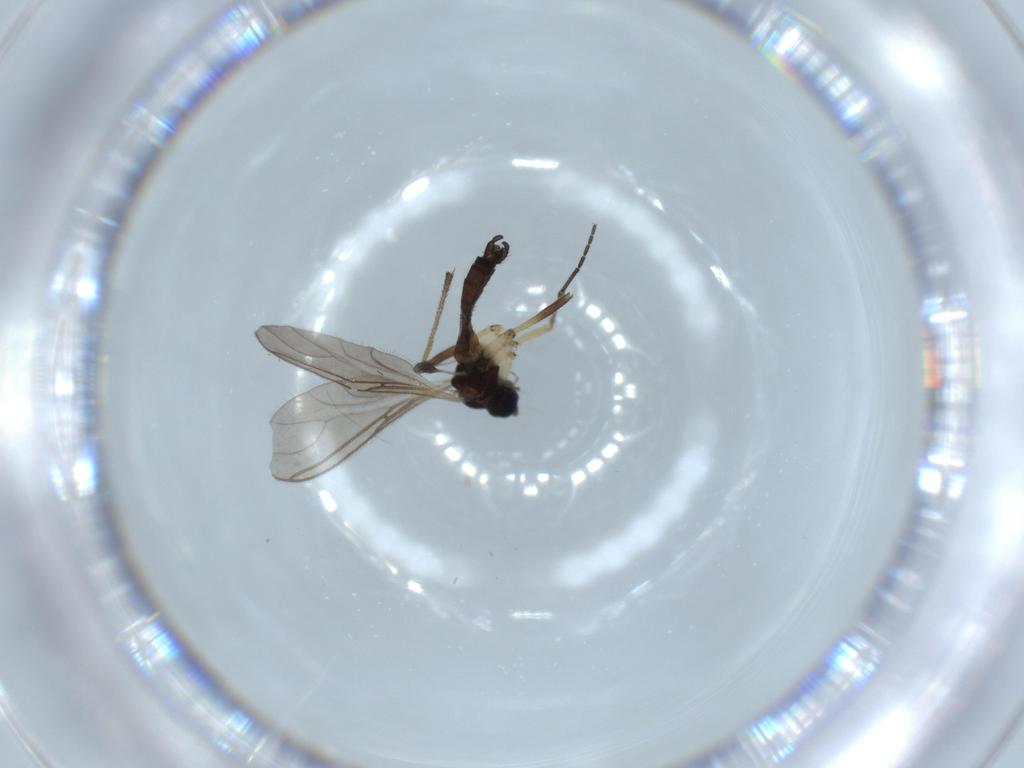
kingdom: Animalia
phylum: Arthropoda
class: Insecta
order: Diptera
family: Sciaridae
